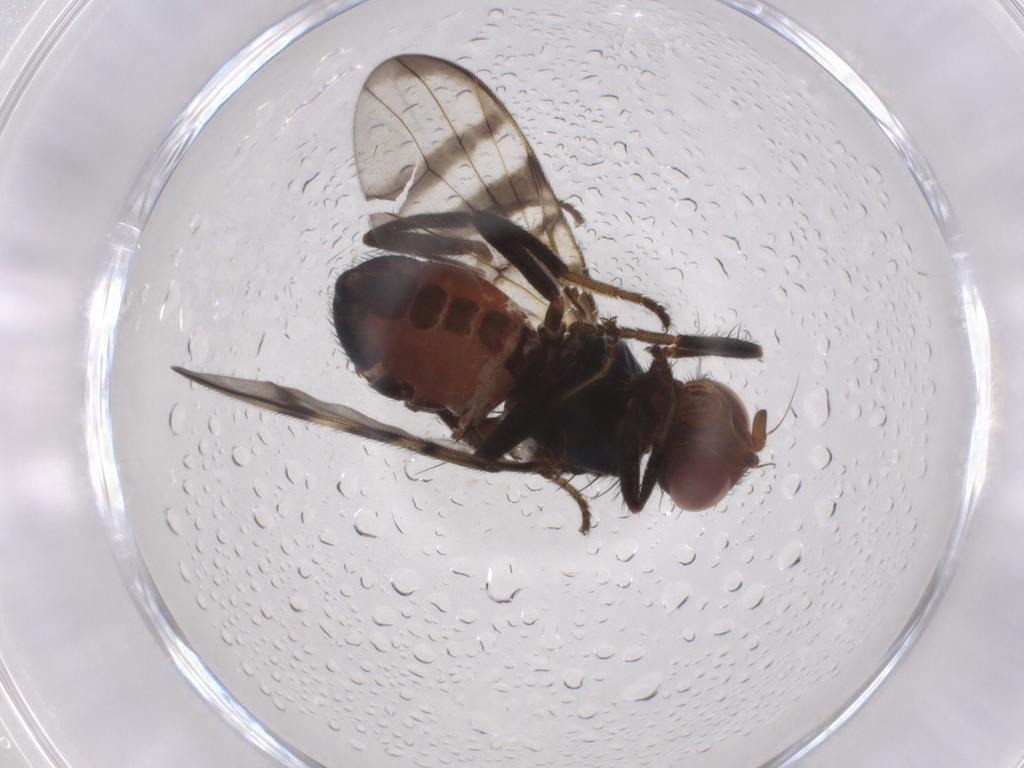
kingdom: Animalia
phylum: Arthropoda
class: Insecta
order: Diptera
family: Platystomatidae
